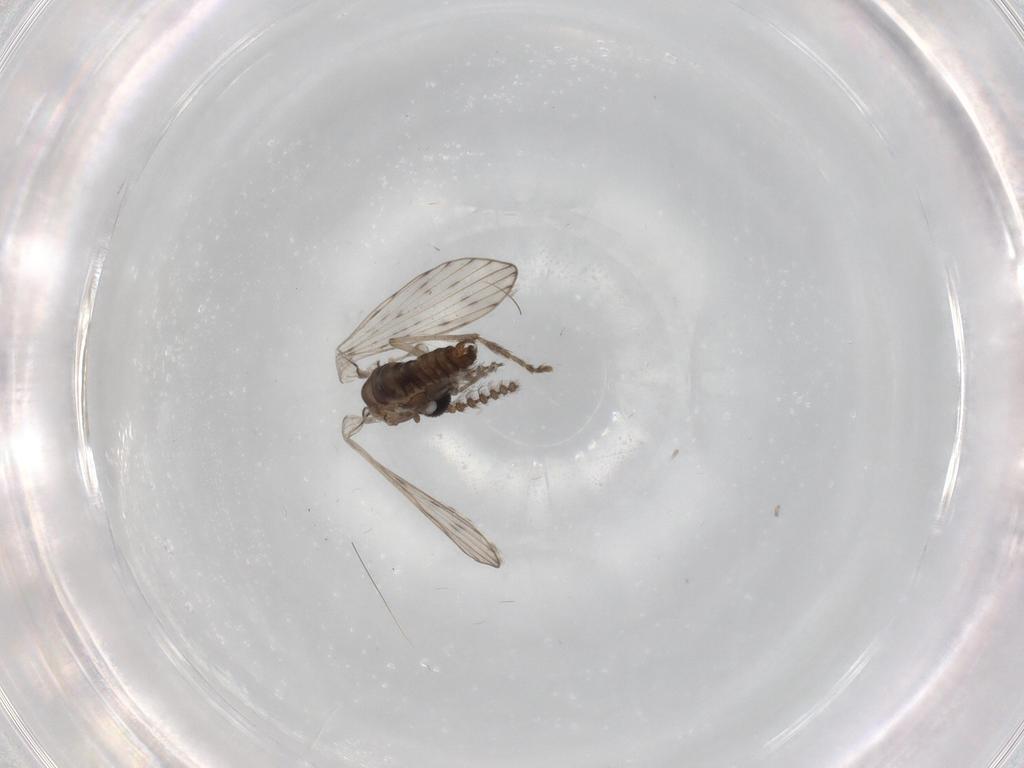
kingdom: Animalia
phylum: Arthropoda
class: Insecta
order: Diptera
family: Psychodidae
